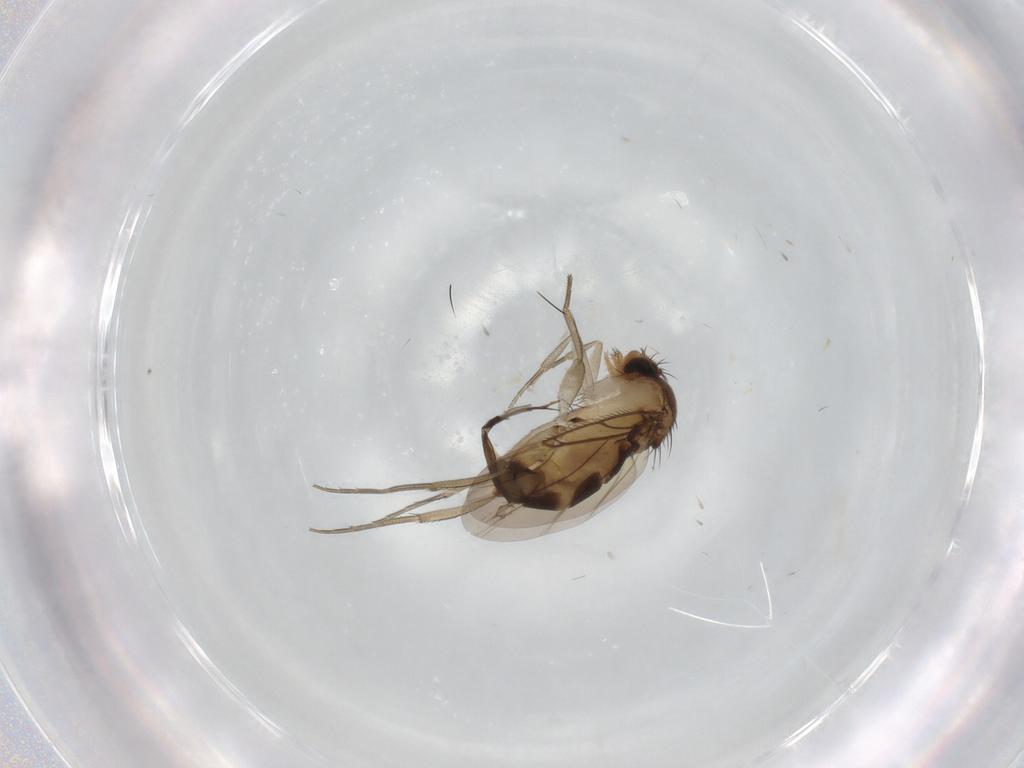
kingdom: Animalia
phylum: Arthropoda
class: Insecta
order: Diptera
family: Phoridae
